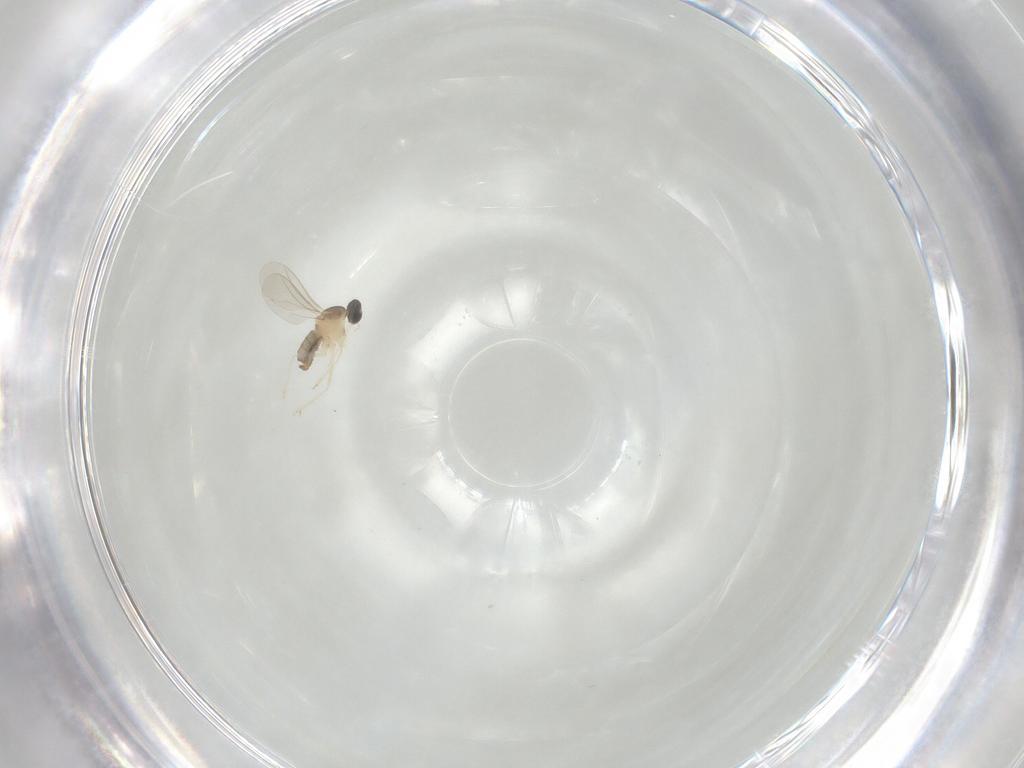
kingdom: Animalia
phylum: Arthropoda
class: Insecta
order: Diptera
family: Cecidomyiidae
